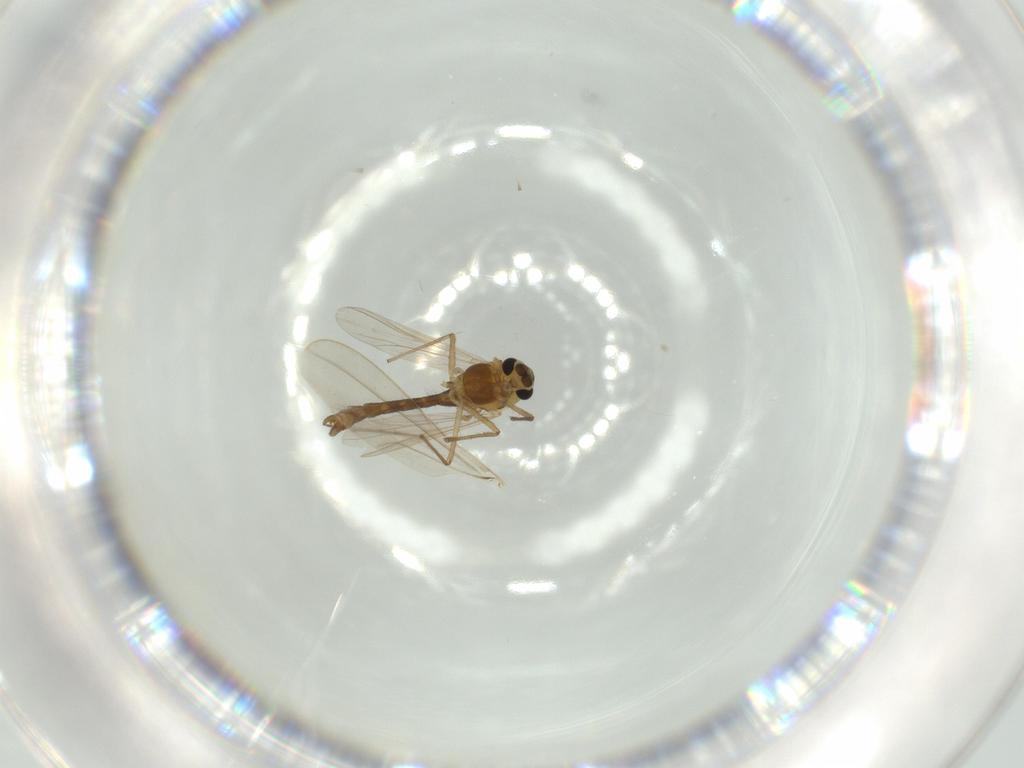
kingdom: Animalia
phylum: Arthropoda
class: Insecta
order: Diptera
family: Chironomidae
